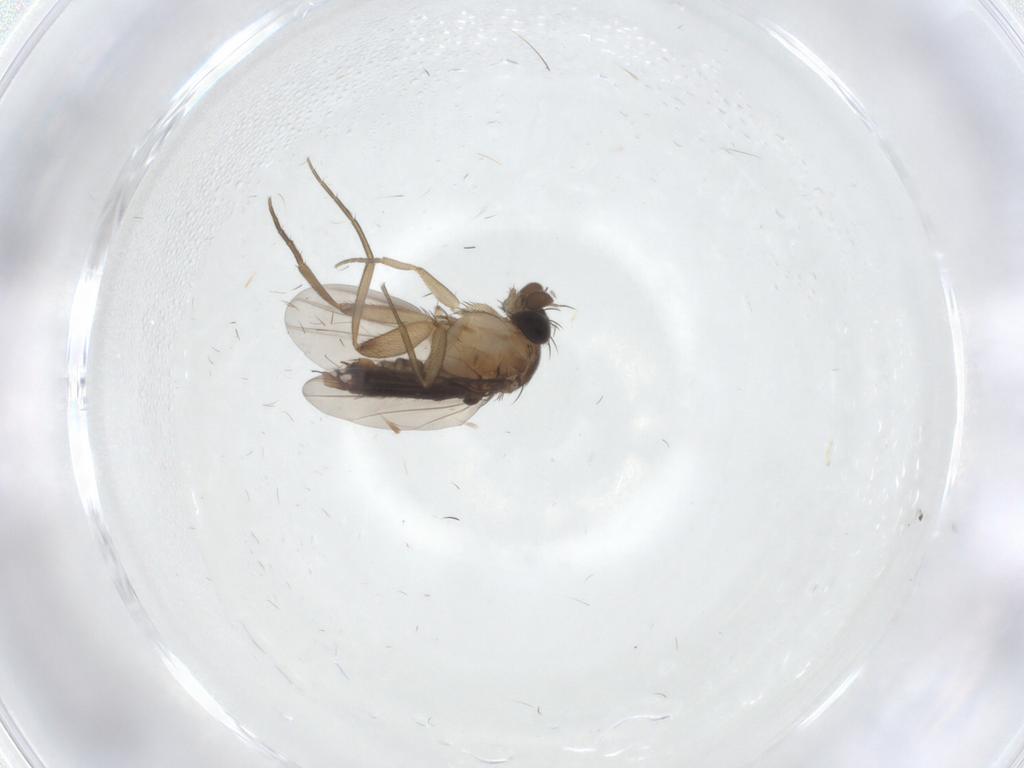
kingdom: Animalia
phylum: Arthropoda
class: Insecta
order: Diptera
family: Phoridae
